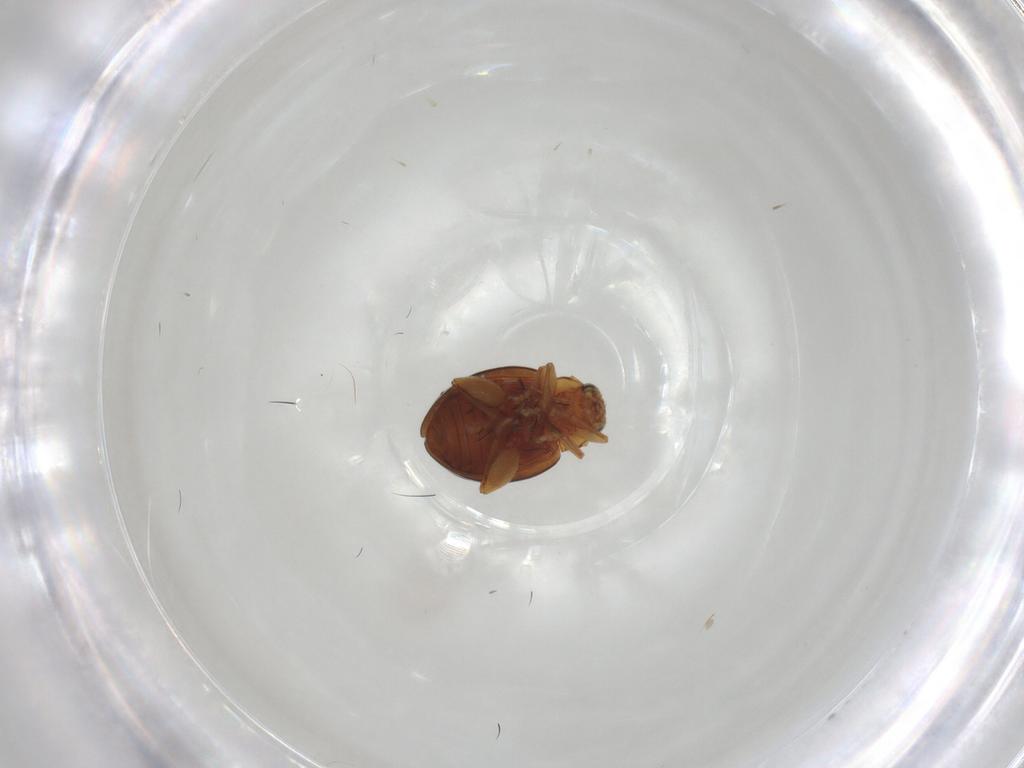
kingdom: Animalia
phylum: Arthropoda
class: Insecta
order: Coleoptera
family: Chrysomelidae
